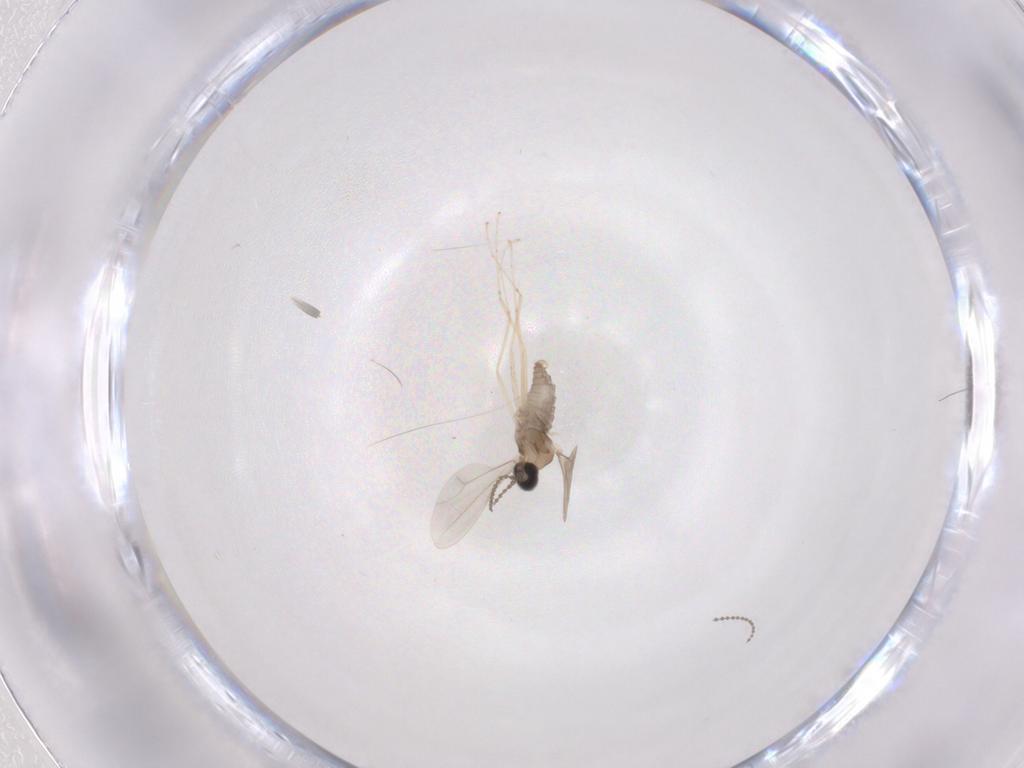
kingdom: Animalia
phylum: Arthropoda
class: Insecta
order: Diptera
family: Cecidomyiidae
